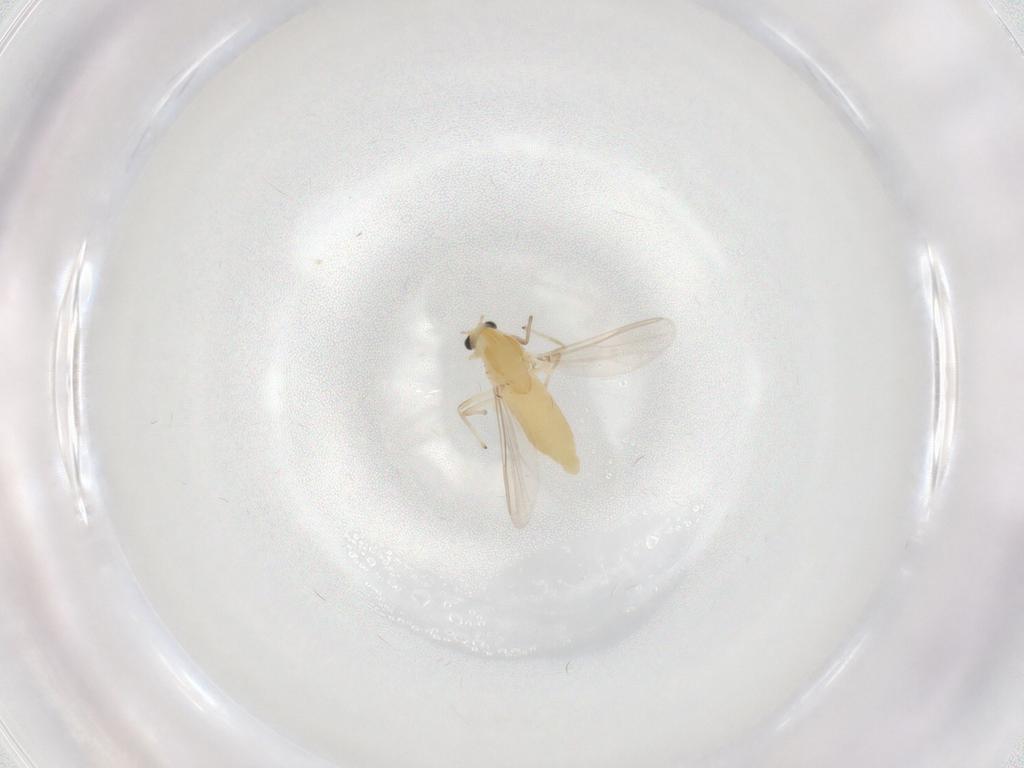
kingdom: Animalia
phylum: Arthropoda
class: Insecta
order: Diptera
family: Chironomidae
